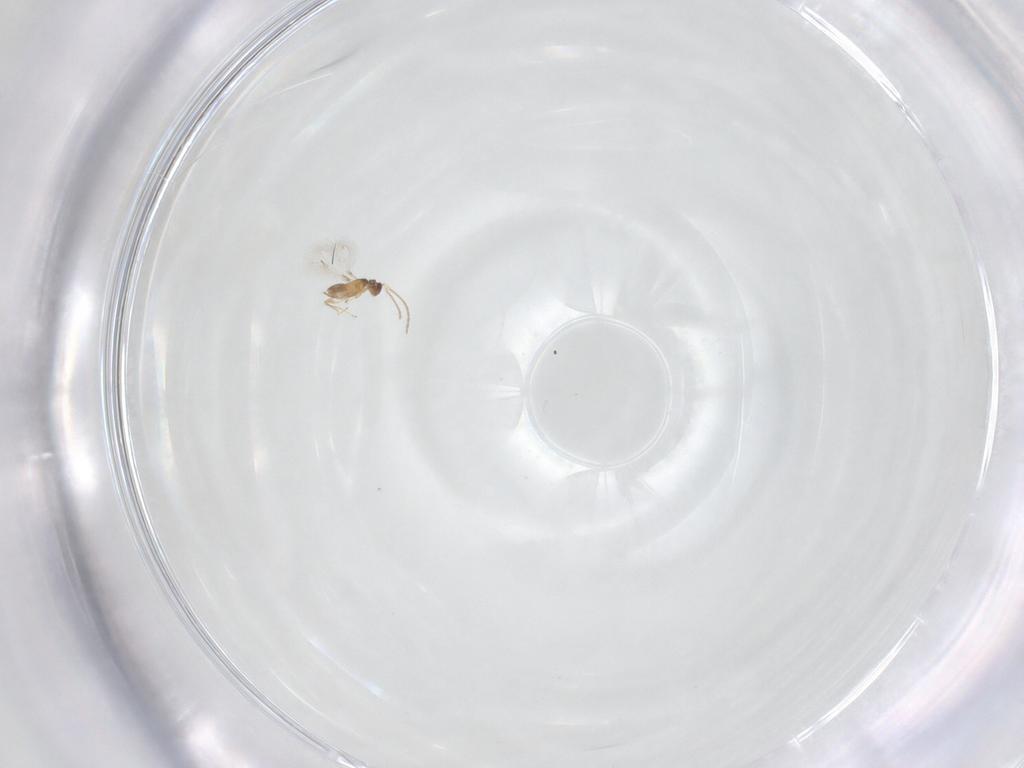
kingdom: Animalia
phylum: Arthropoda
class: Insecta
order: Hymenoptera
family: Mymaridae
